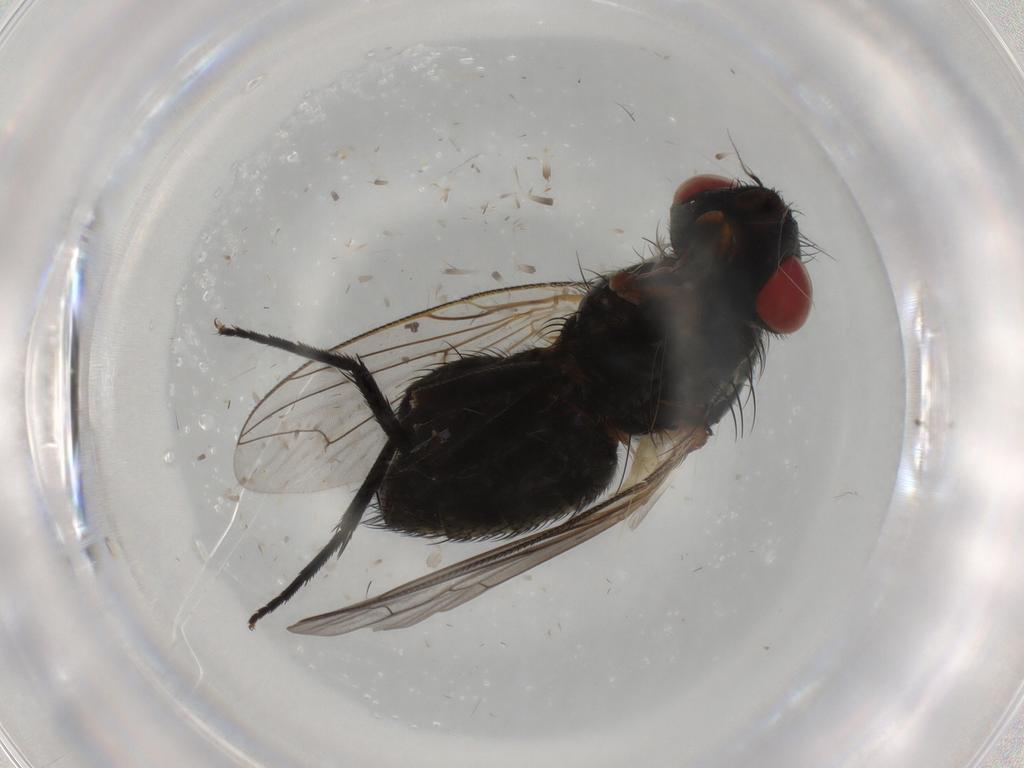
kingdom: Animalia
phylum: Arthropoda
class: Insecta
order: Diptera
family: Sarcophagidae
